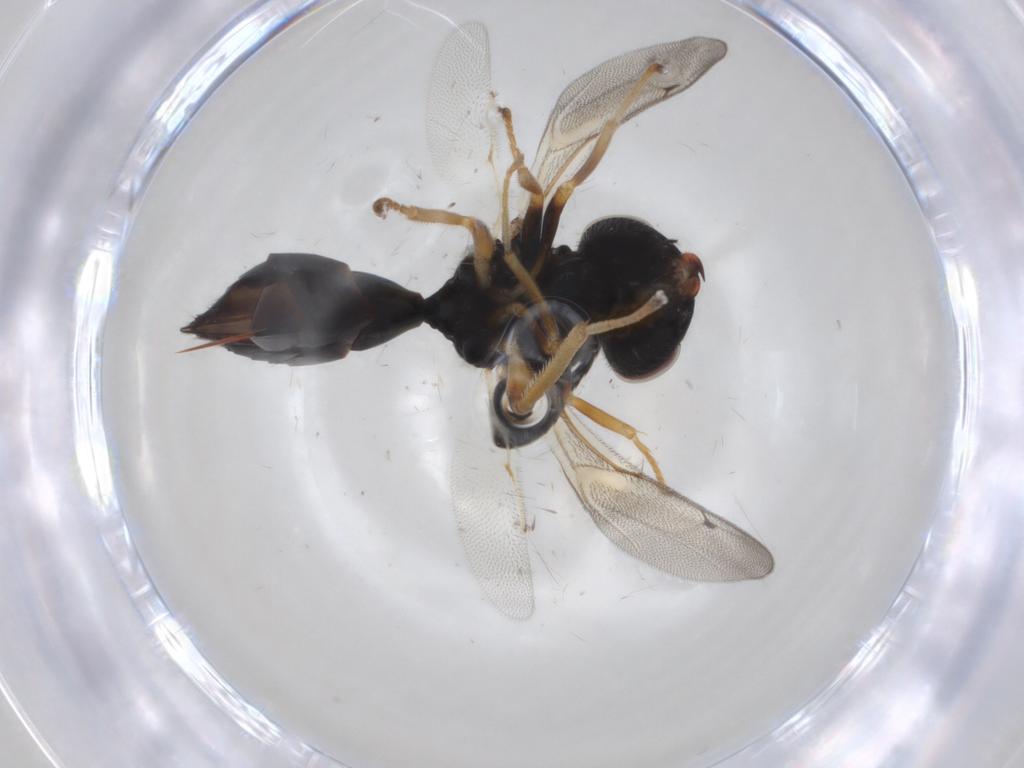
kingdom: Animalia
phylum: Arthropoda
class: Insecta
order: Hymenoptera
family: Pteromalidae
